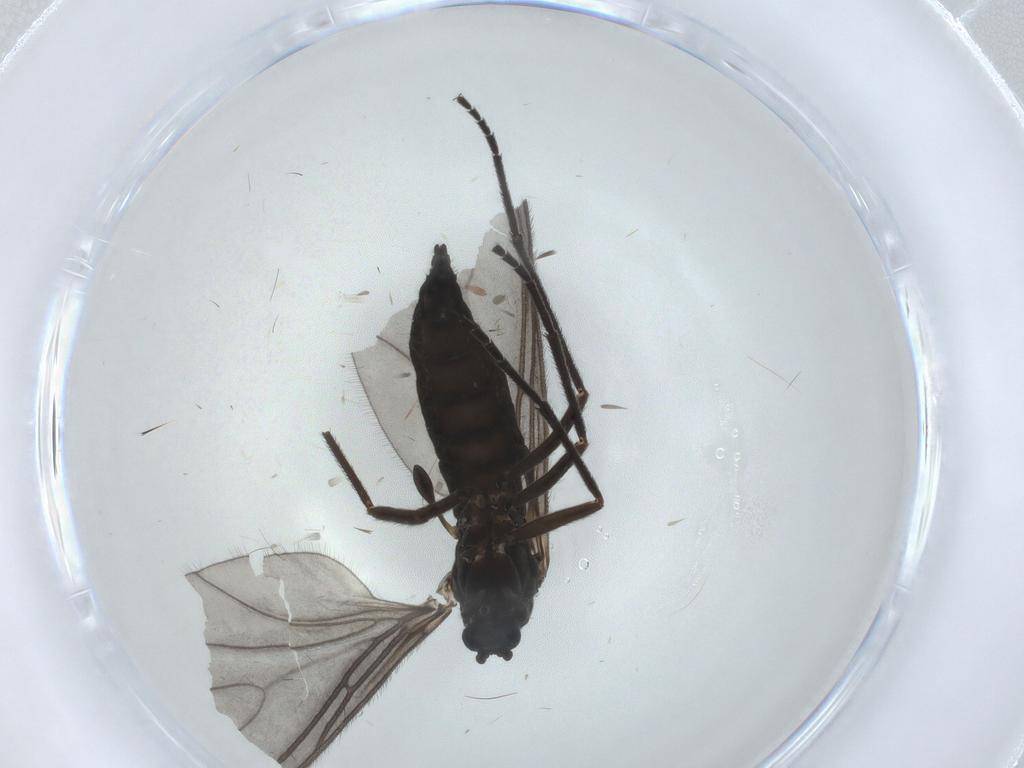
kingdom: Animalia
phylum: Arthropoda
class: Insecta
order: Diptera
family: Sciaridae
